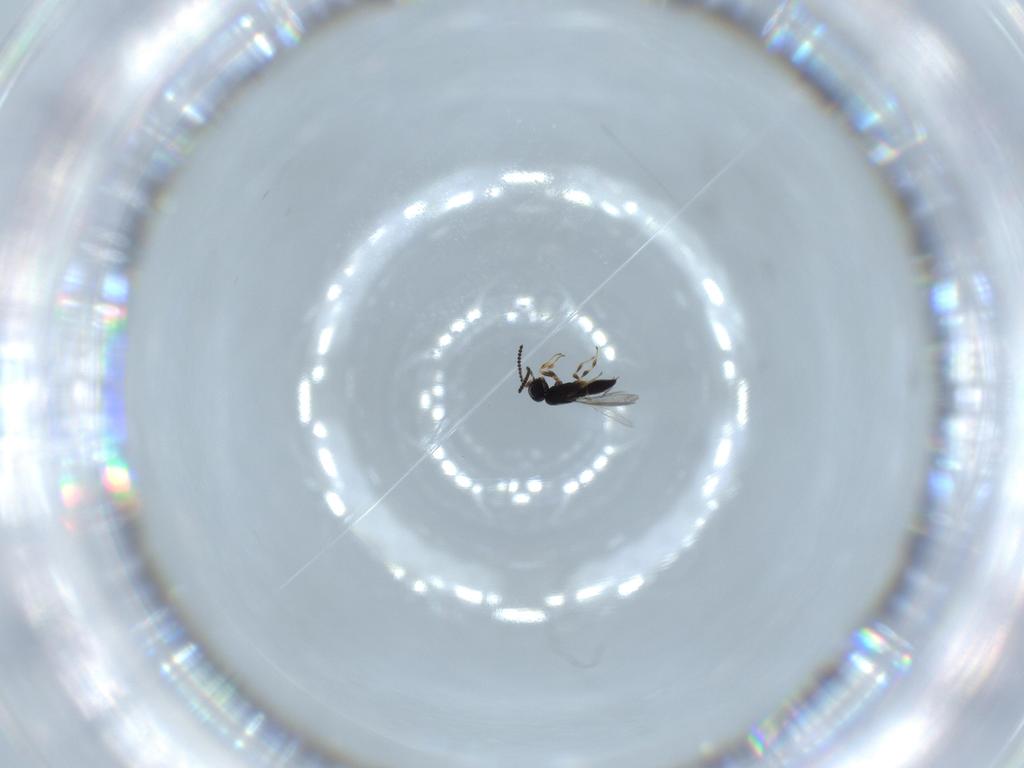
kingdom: Animalia
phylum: Arthropoda
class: Insecta
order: Hymenoptera
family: Scelionidae
